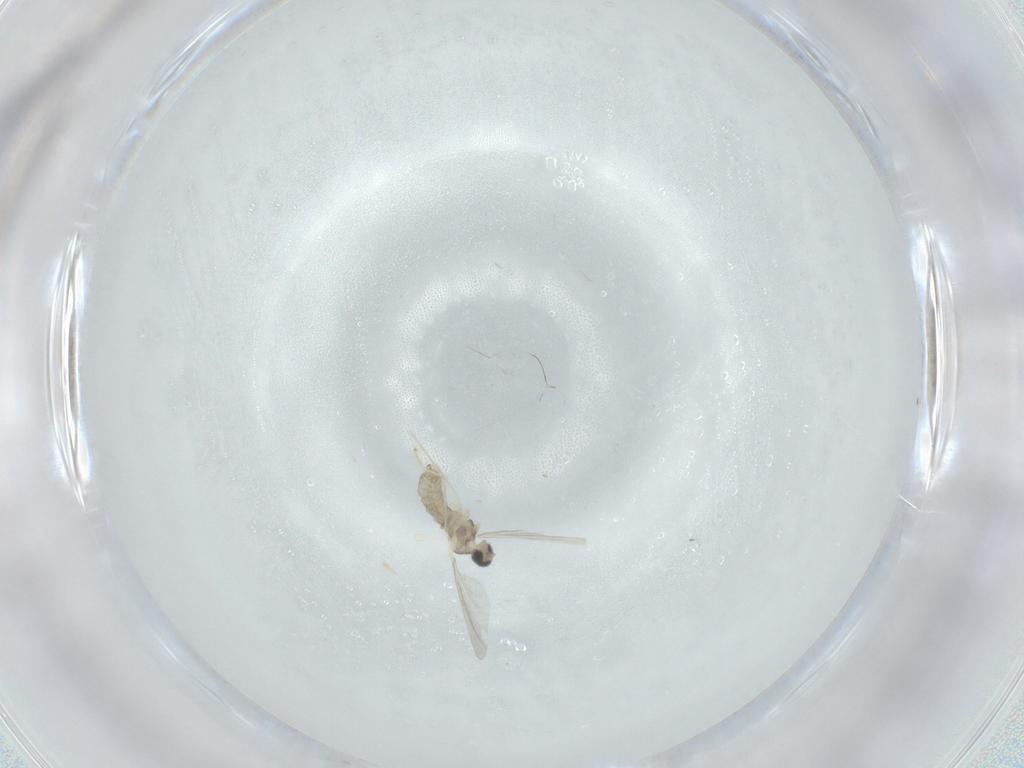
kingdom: Animalia
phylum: Arthropoda
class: Insecta
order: Diptera
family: Cecidomyiidae
